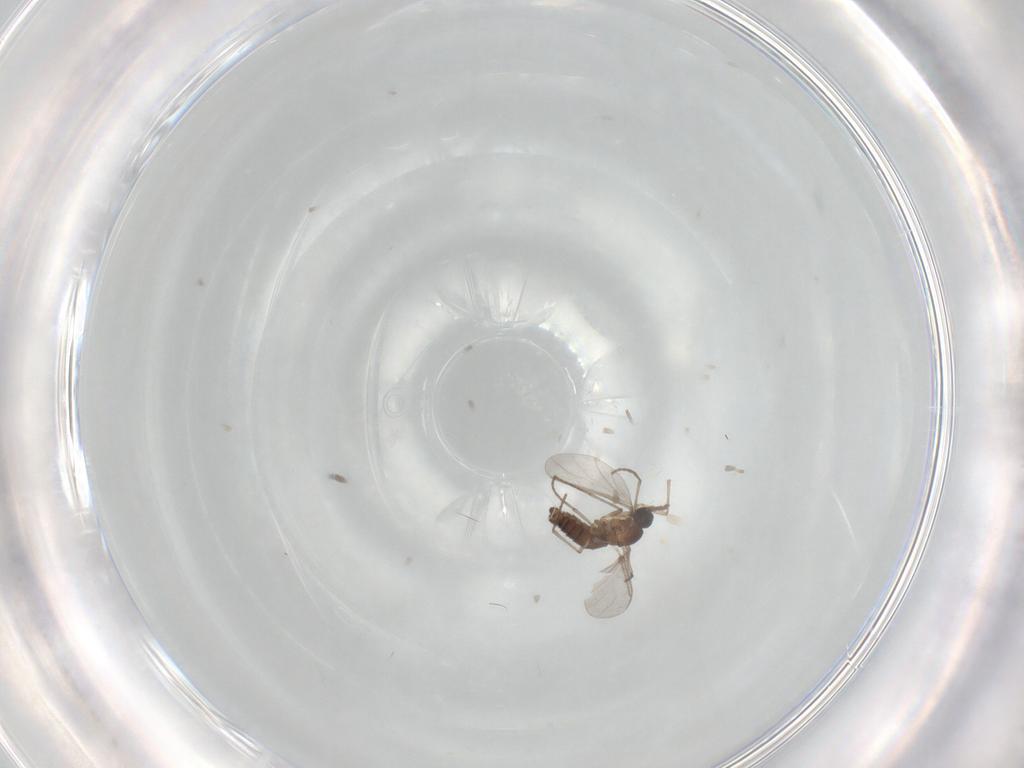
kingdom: Animalia
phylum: Arthropoda
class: Insecta
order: Diptera
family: Sciaridae
